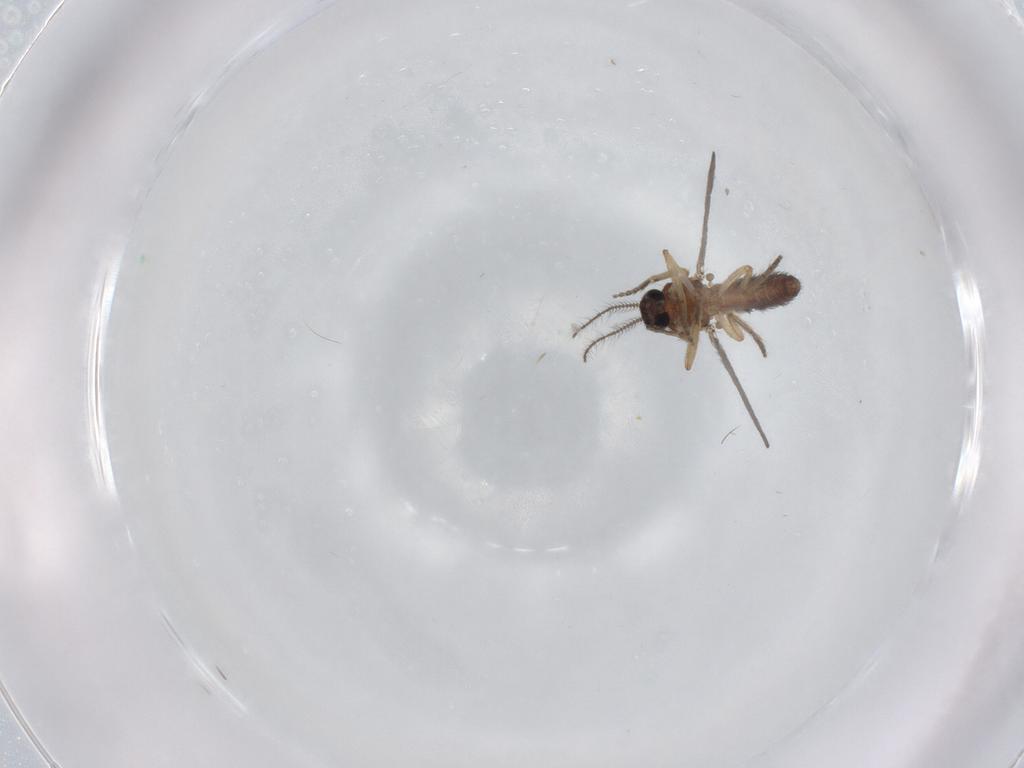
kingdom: Animalia
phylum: Arthropoda
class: Insecta
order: Diptera
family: Ceratopogonidae
